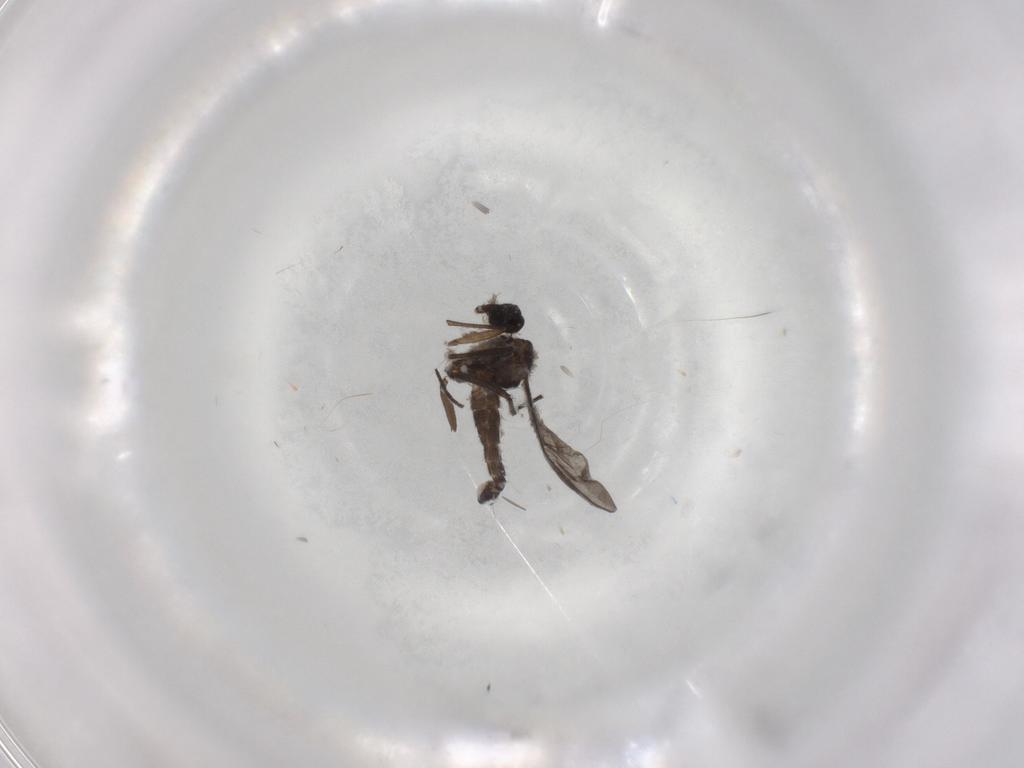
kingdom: Animalia
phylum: Arthropoda
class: Insecta
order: Diptera
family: Sciaridae
